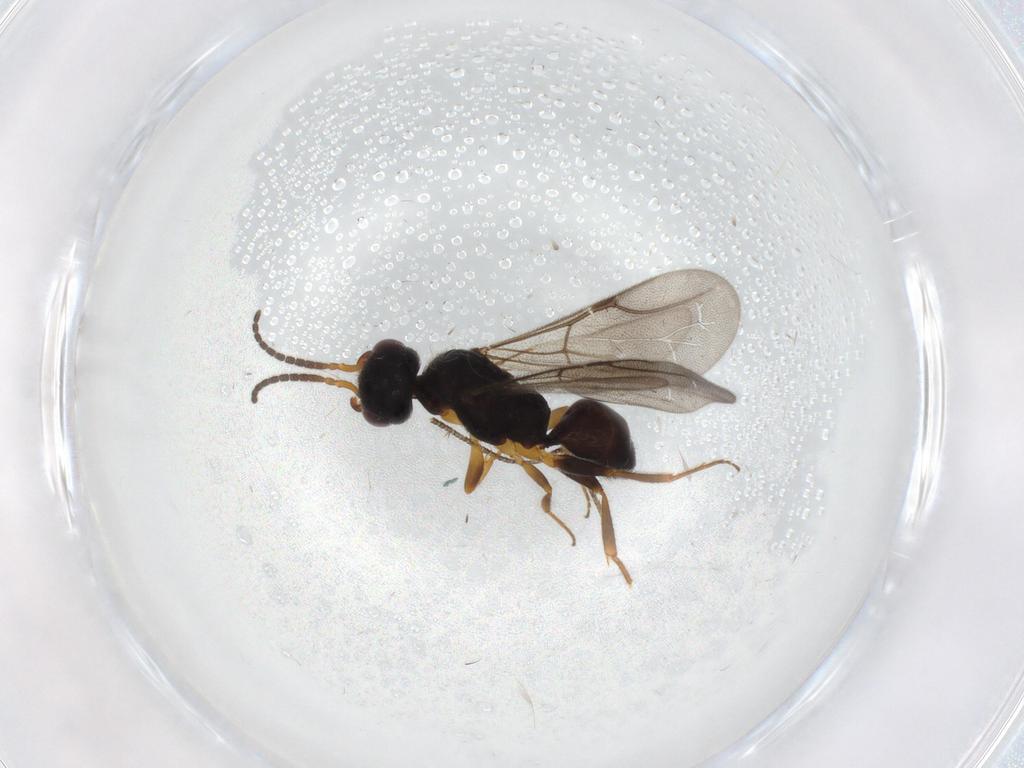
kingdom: Animalia
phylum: Arthropoda
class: Insecta
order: Hymenoptera
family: Bethylidae
